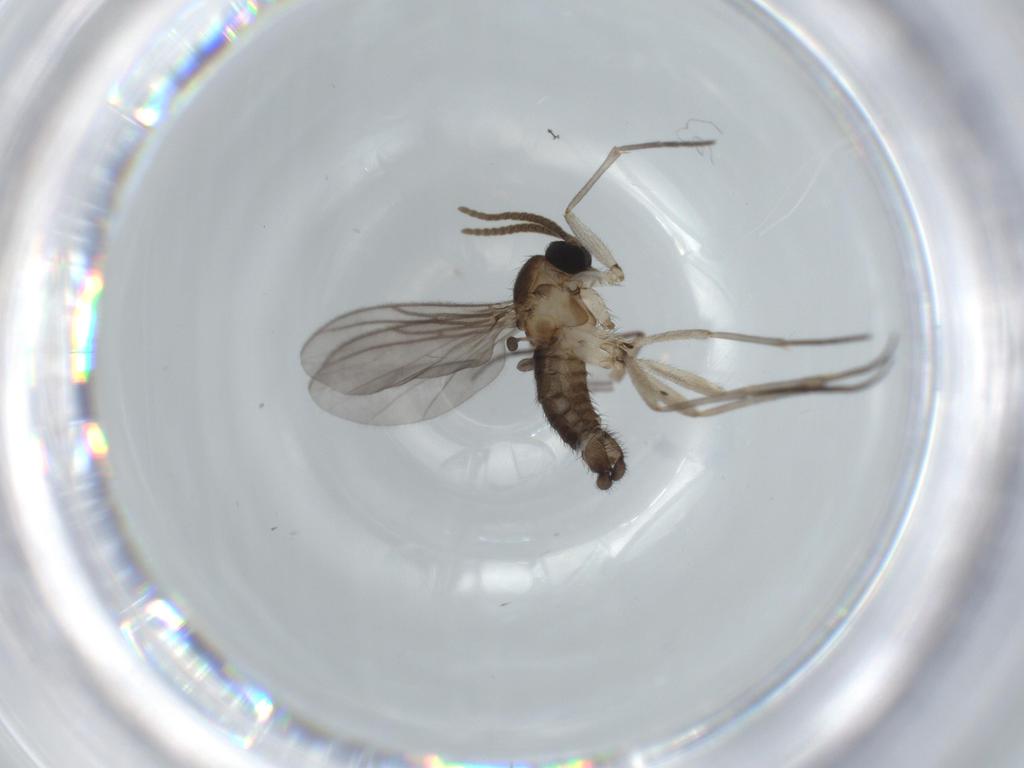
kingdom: Animalia
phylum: Arthropoda
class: Insecta
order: Diptera
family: Sciaridae
